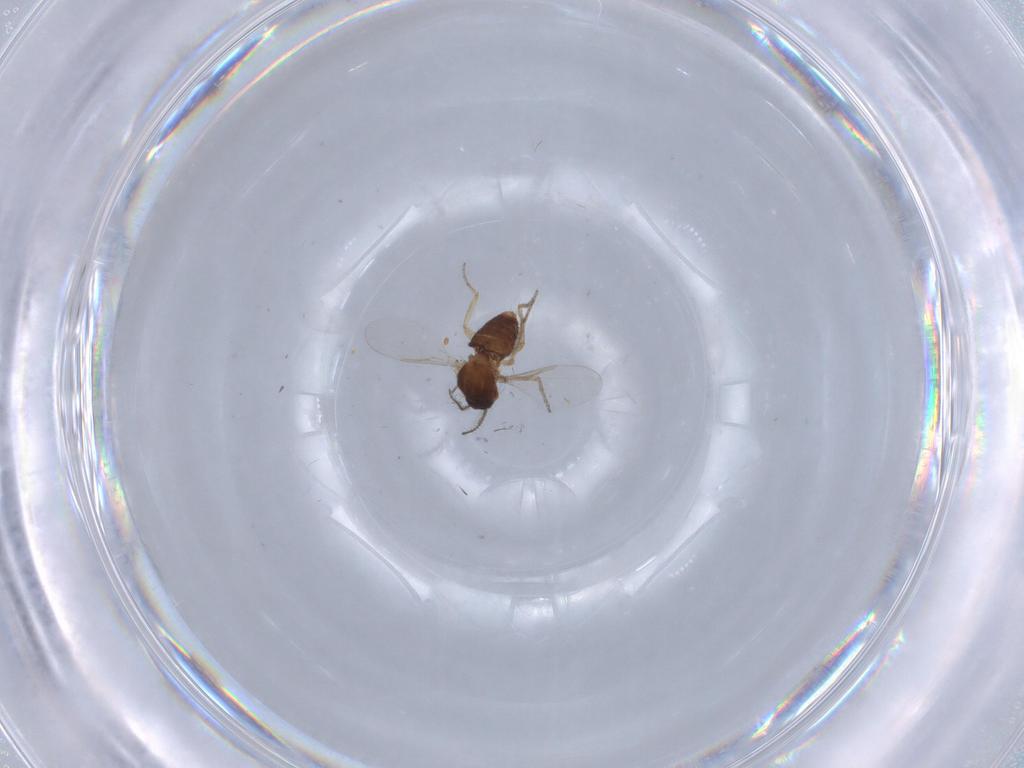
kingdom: Animalia
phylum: Arthropoda
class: Insecta
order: Diptera
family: Ceratopogonidae
